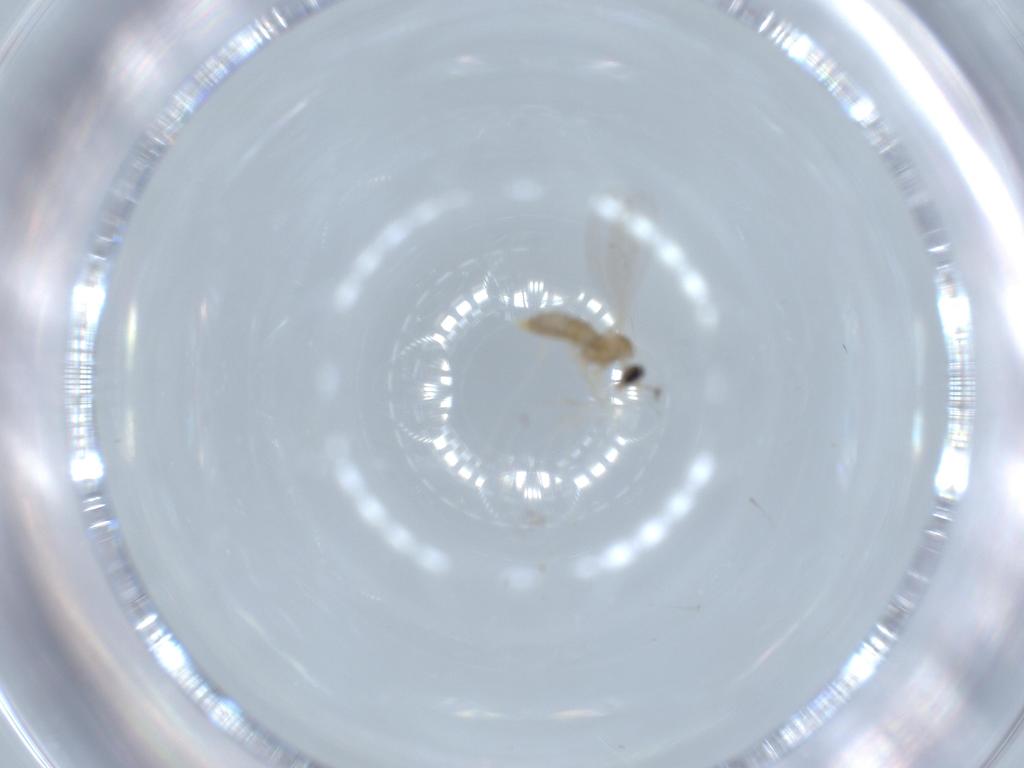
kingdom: Animalia
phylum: Arthropoda
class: Insecta
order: Diptera
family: Cecidomyiidae
